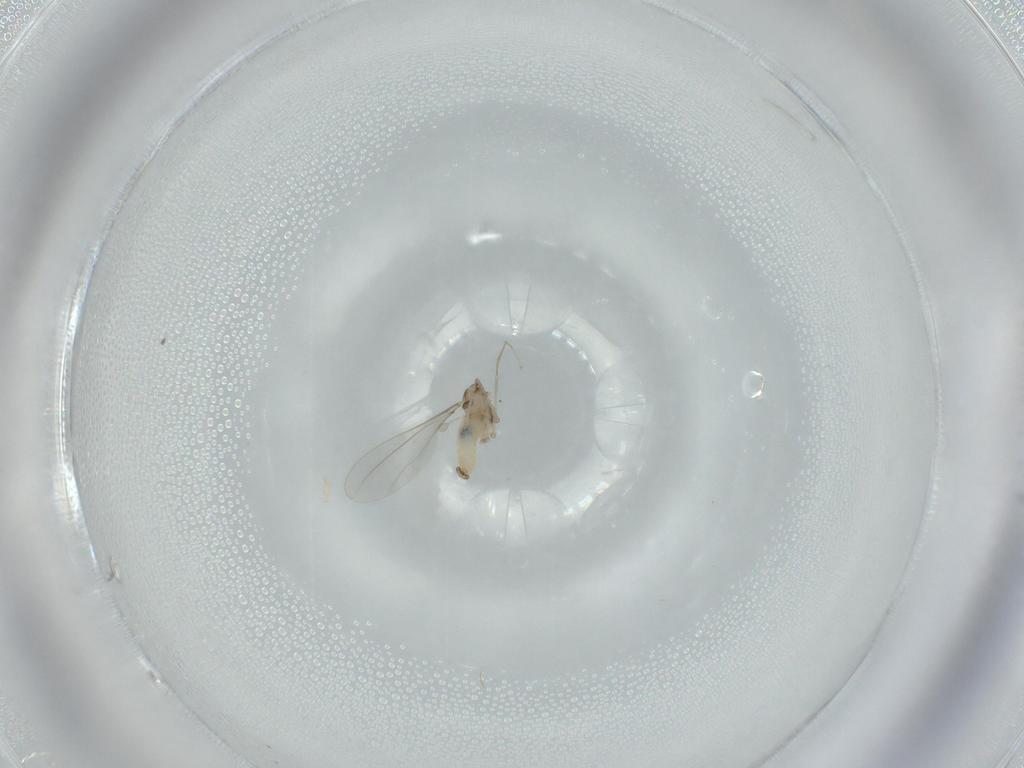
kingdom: Animalia
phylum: Arthropoda
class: Insecta
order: Diptera
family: Cecidomyiidae
